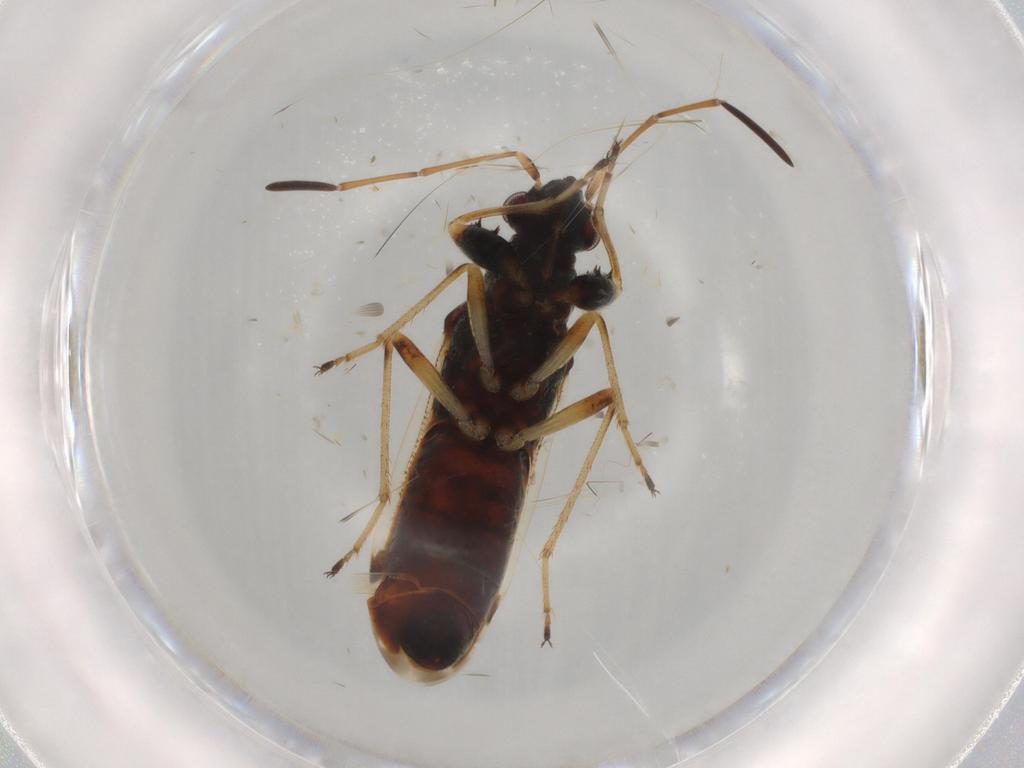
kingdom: Animalia
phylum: Arthropoda
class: Insecta
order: Hemiptera
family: Rhyparochromidae
